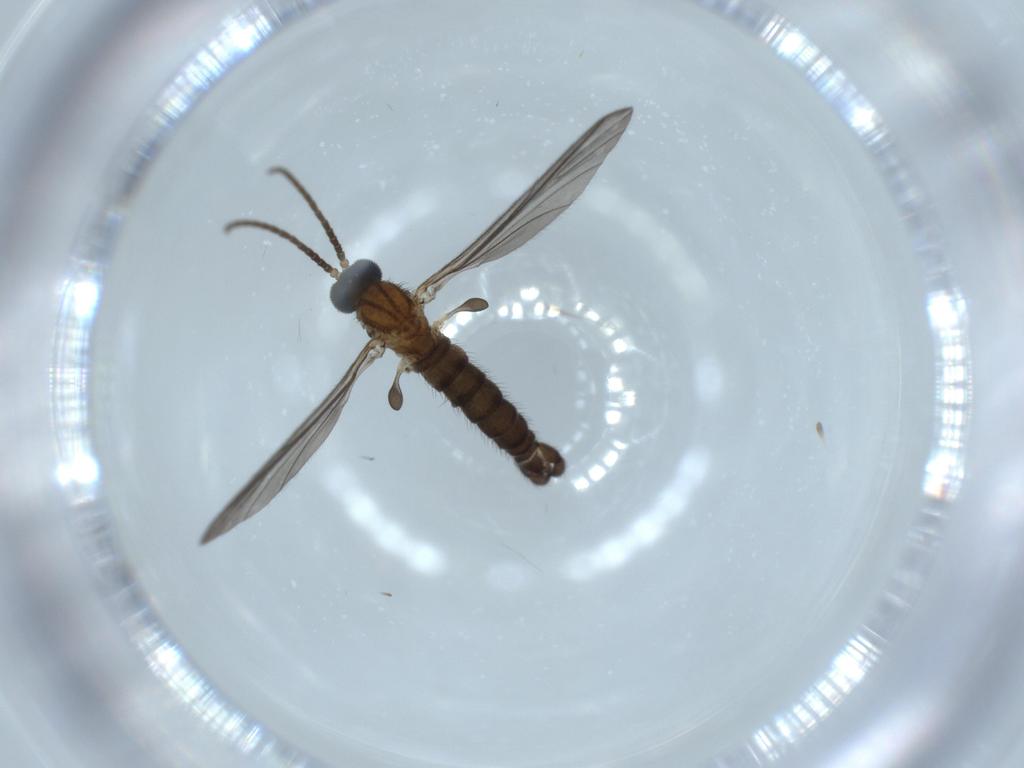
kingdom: Animalia
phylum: Arthropoda
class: Insecta
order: Diptera
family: Sciaridae
